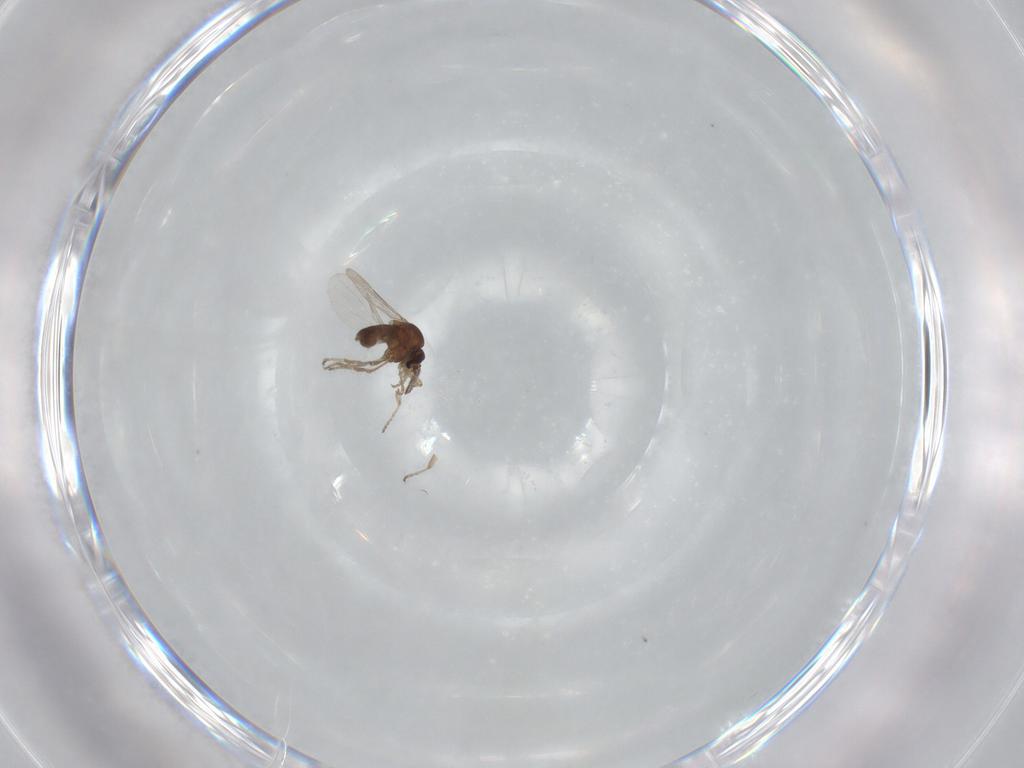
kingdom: Animalia
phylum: Arthropoda
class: Insecta
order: Diptera
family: Ceratopogonidae
